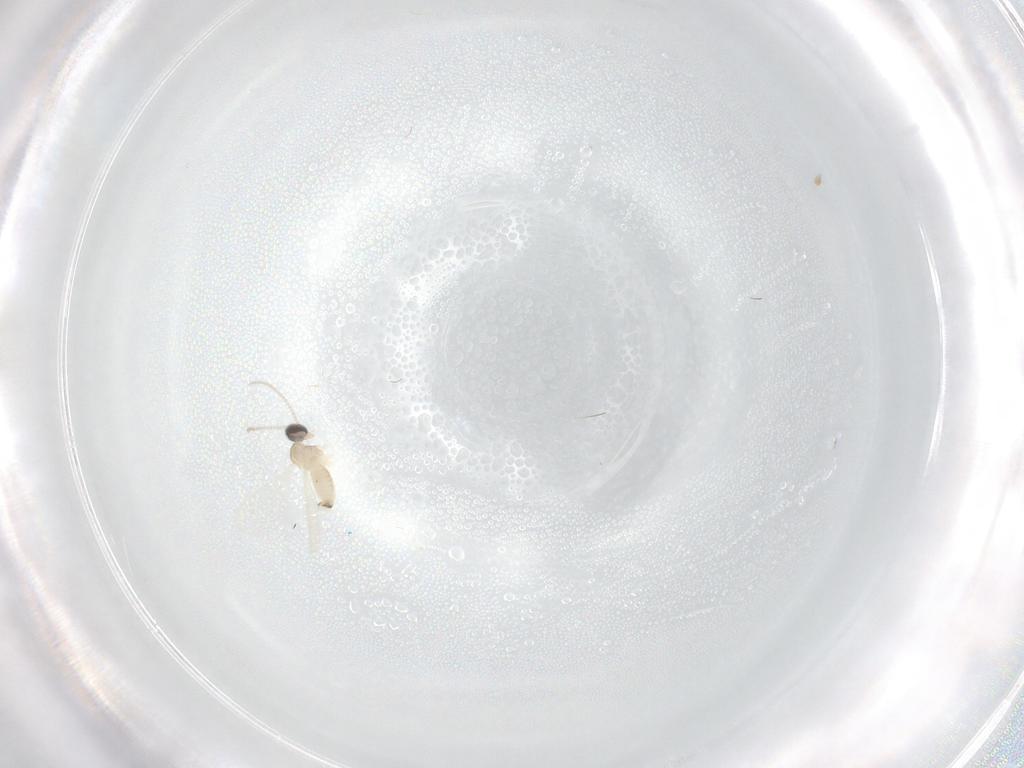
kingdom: Animalia
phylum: Arthropoda
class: Insecta
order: Diptera
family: Cecidomyiidae
